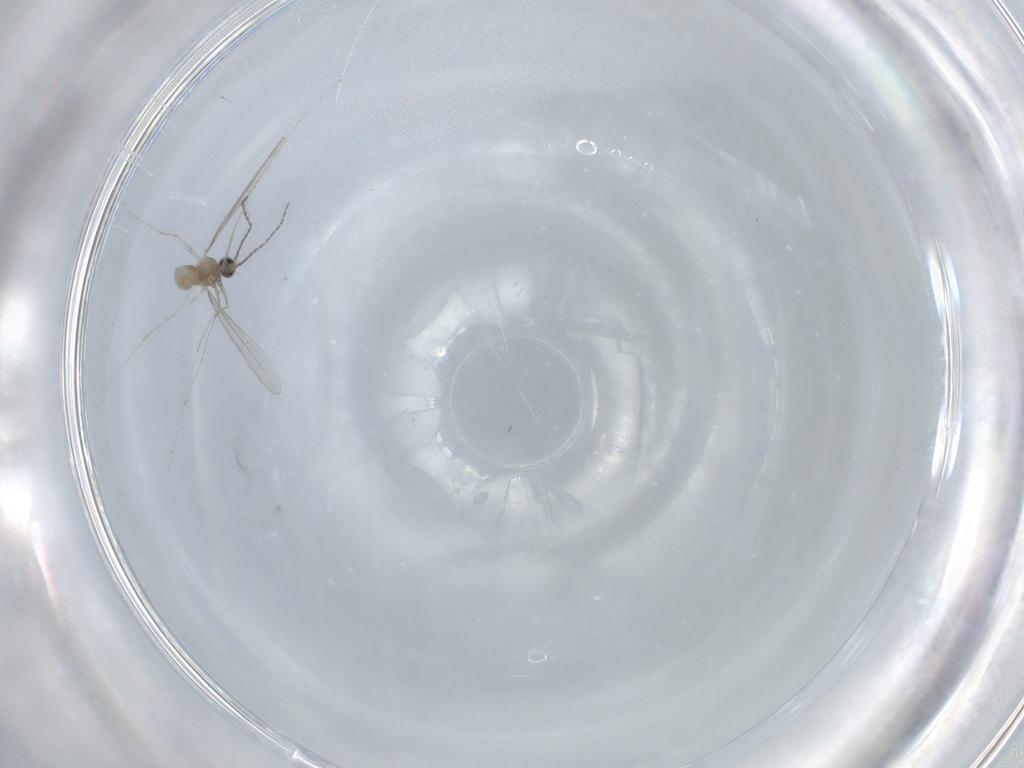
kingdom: Animalia
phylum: Arthropoda
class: Insecta
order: Diptera
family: Cecidomyiidae
